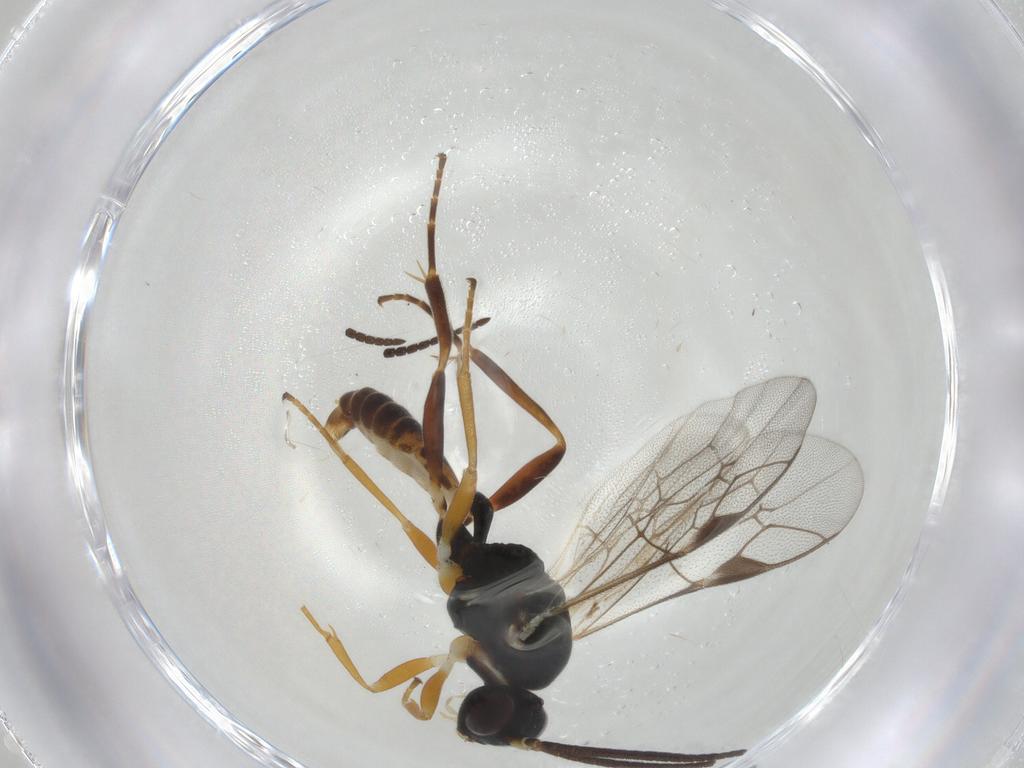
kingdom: Animalia
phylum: Arthropoda
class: Insecta
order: Hymenoptera
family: Ichneumonidae
